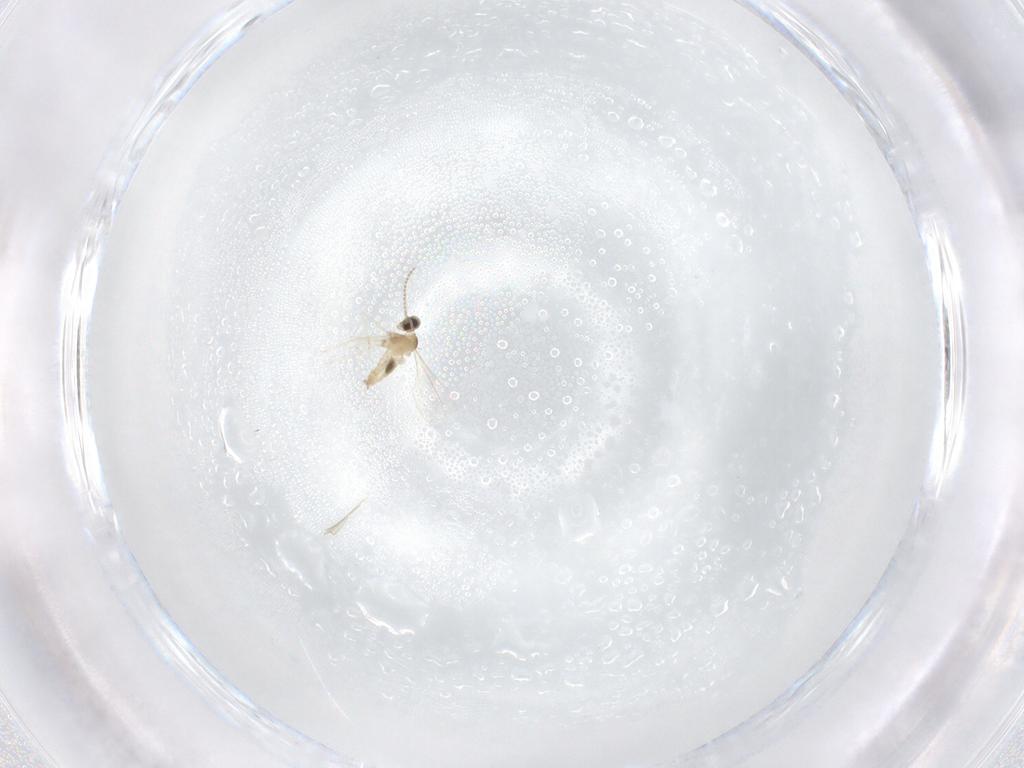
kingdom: Animalia
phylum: Arthropoda
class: Insecta
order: Diptera
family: Cecidomyiidae
